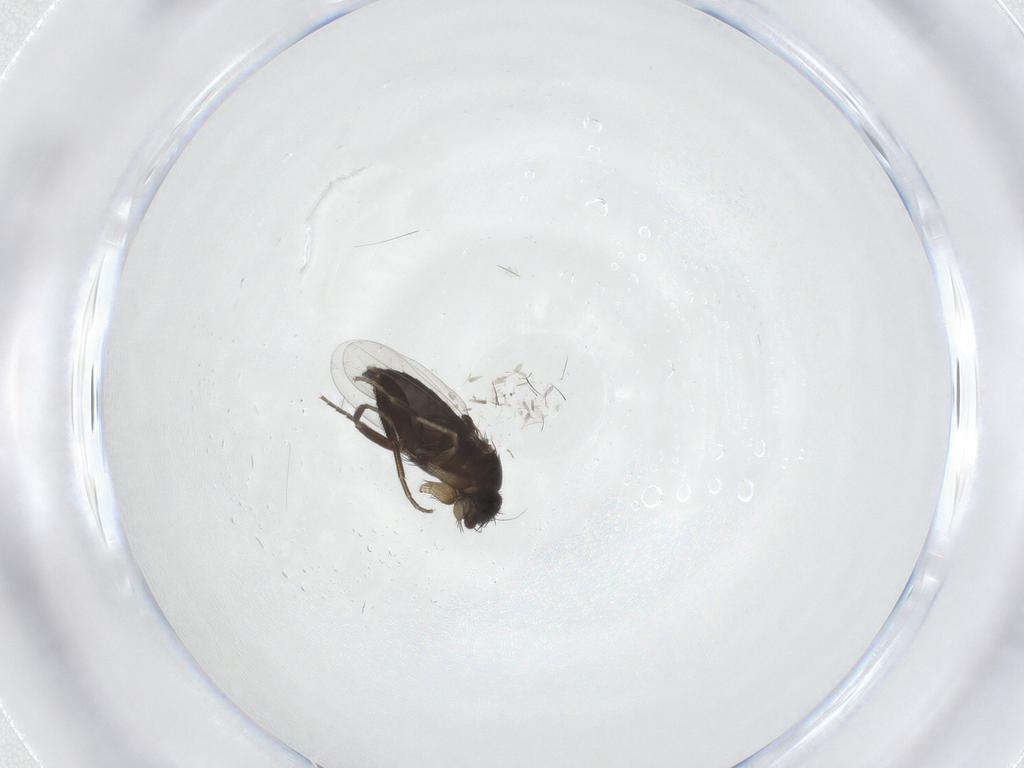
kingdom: Animalia
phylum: Arthropoda
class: Insecta
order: Diptera
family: Phoridae
